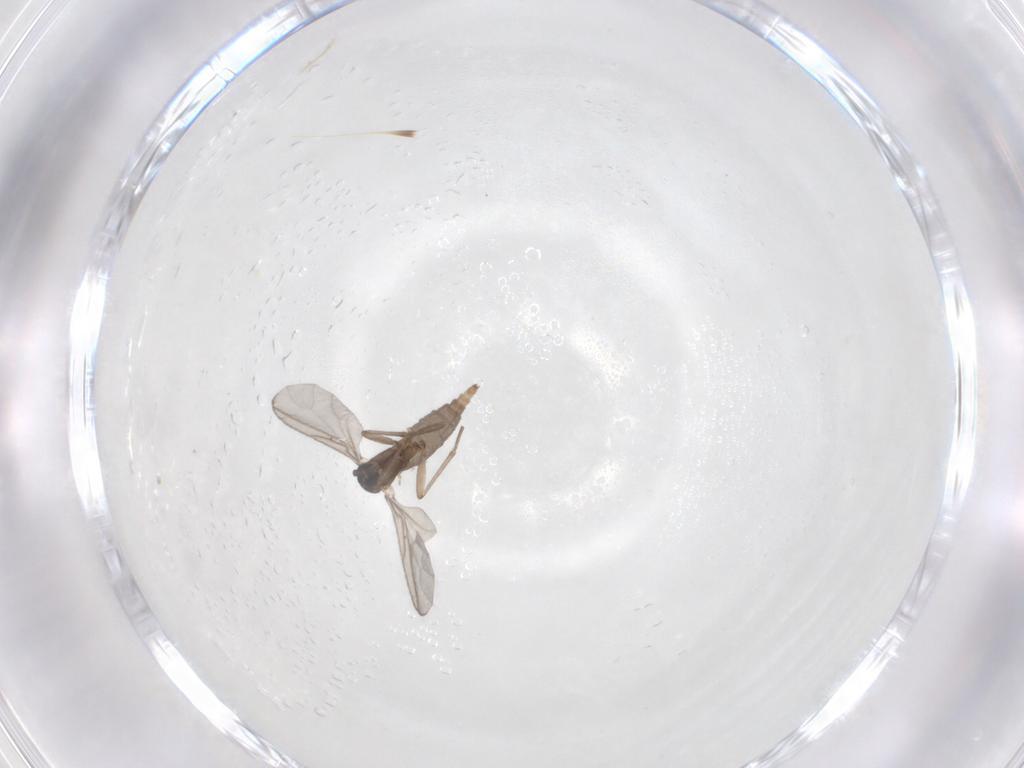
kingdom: Animalia
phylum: Arthropoda
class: Insecta
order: Diptera
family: Sciaridae
